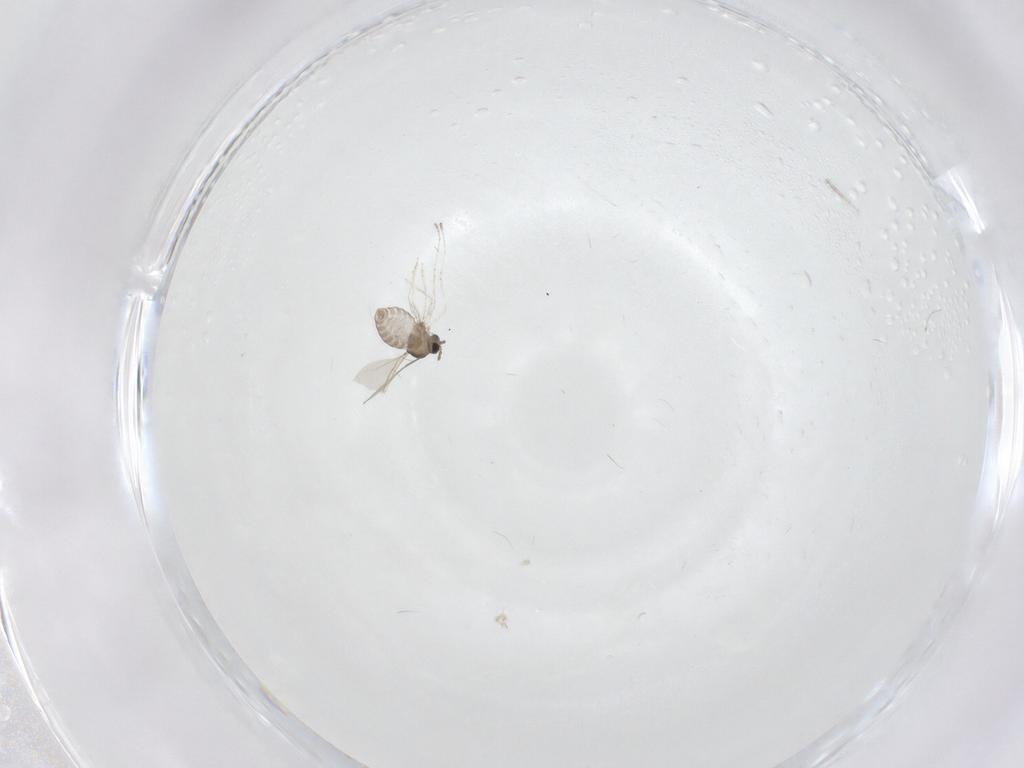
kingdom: Animalia
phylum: Arthropoda
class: Insecta
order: Diptera
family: Cecidomyiidae
